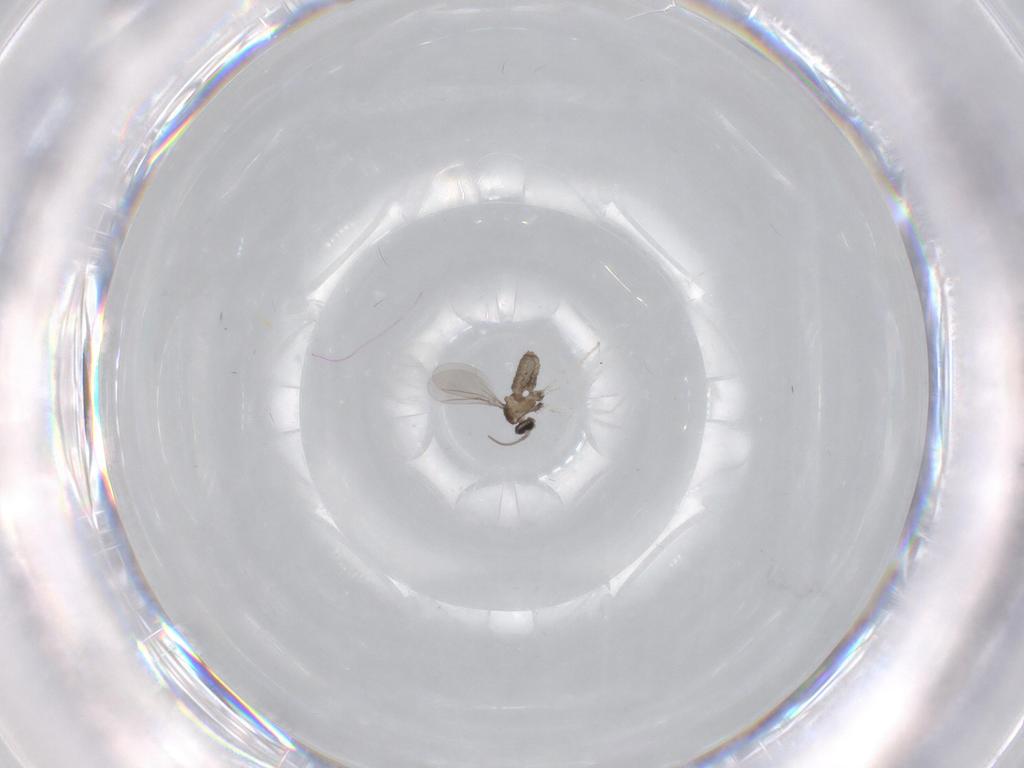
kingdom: Animalia
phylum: Arthropoda
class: Insecta
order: Diptera
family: Cecidomyiidae
